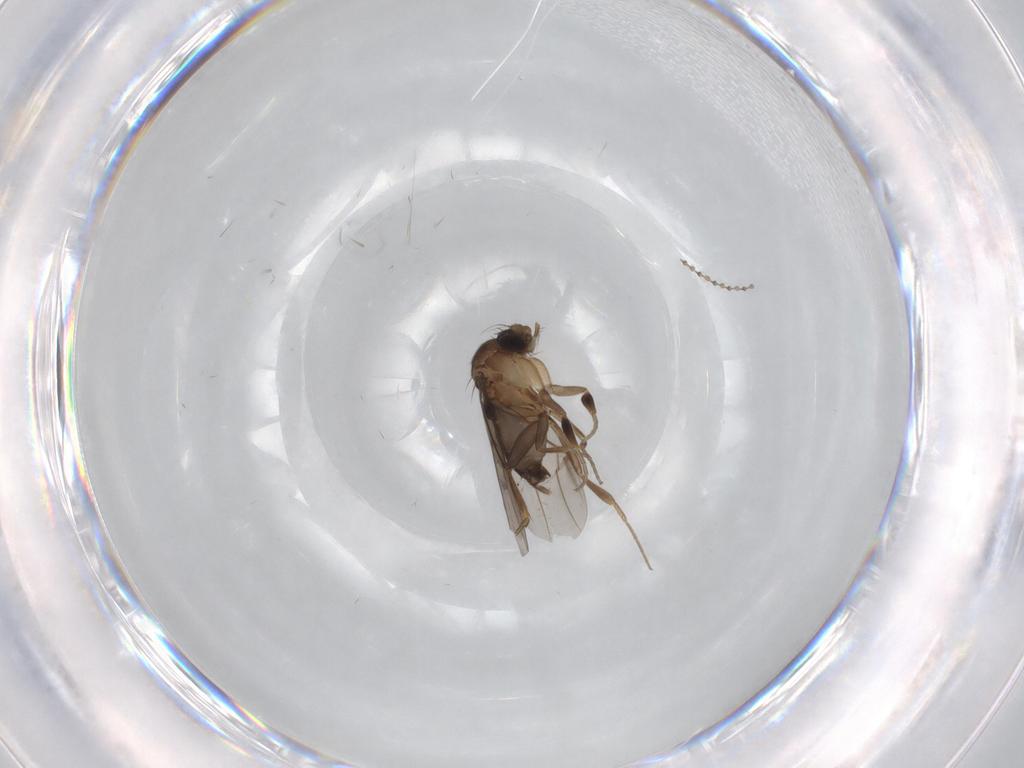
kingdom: Animalia
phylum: Arthropoda
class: Insecta
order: Diptera
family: Phoridae
